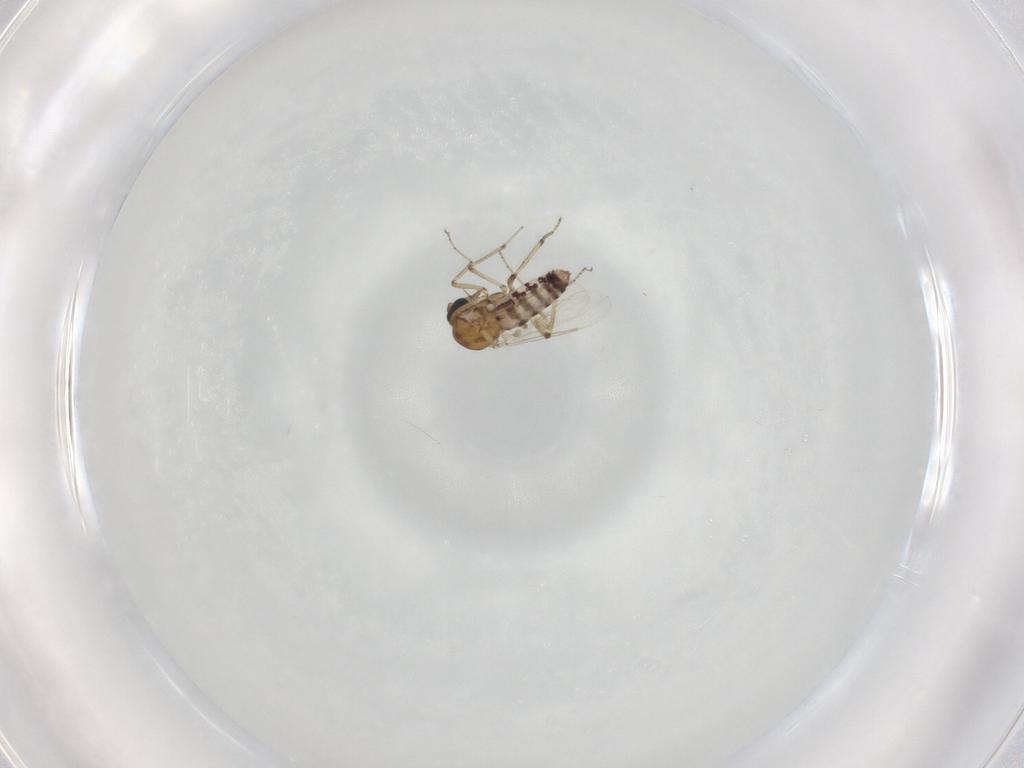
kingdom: Animalia
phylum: Arthropoda
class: Insecta
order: Diptera
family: Ceratopogonidae
